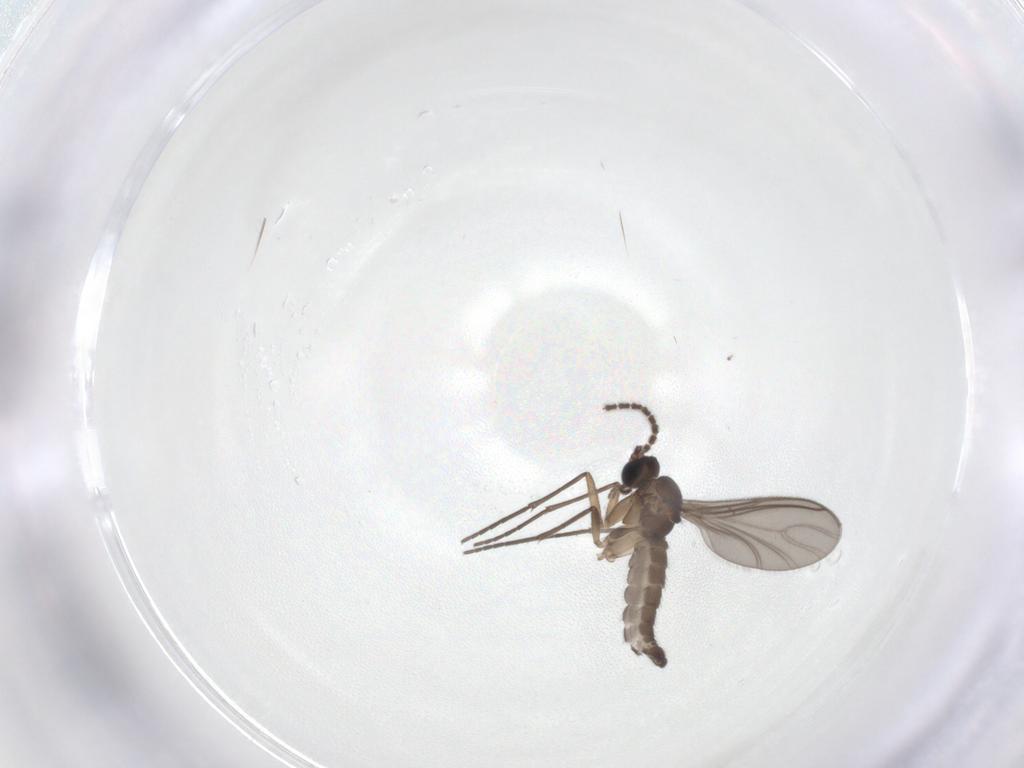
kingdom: Animalia
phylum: Arthropoda
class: Insecta
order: Diptera
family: Sciaridae
